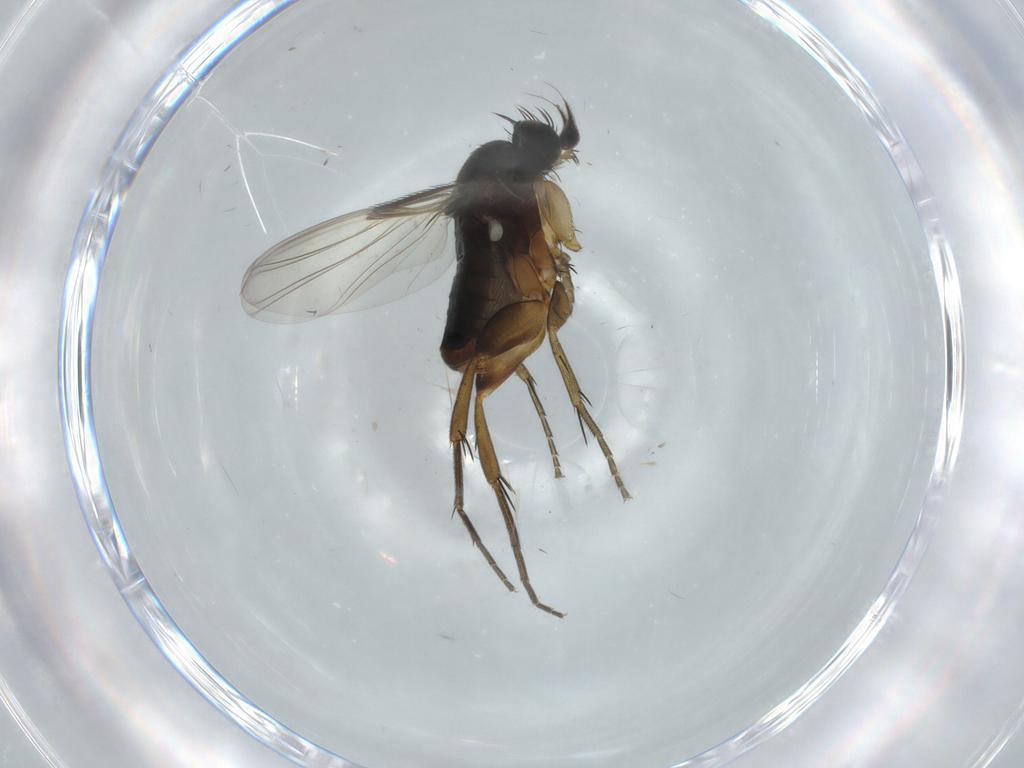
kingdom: Animalia
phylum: Arthropoda
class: Insecta
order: Diptera
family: Phoridae
